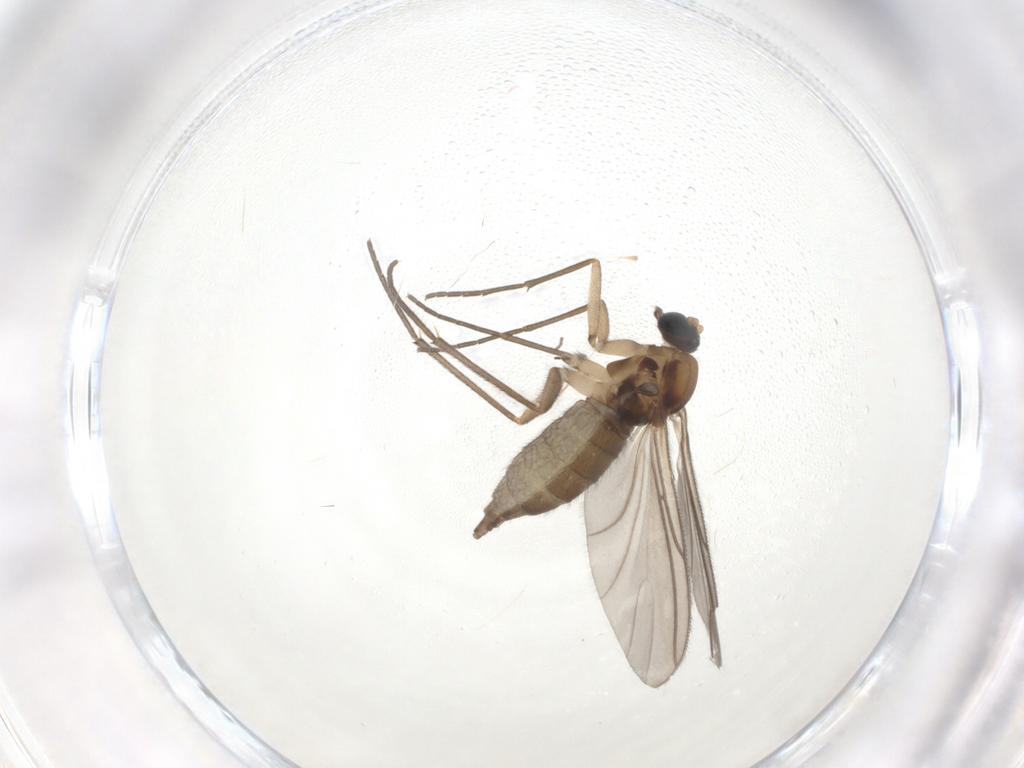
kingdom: Animalia
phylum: Arthropoda
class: Insecta
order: Diptera
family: Sciaridae
